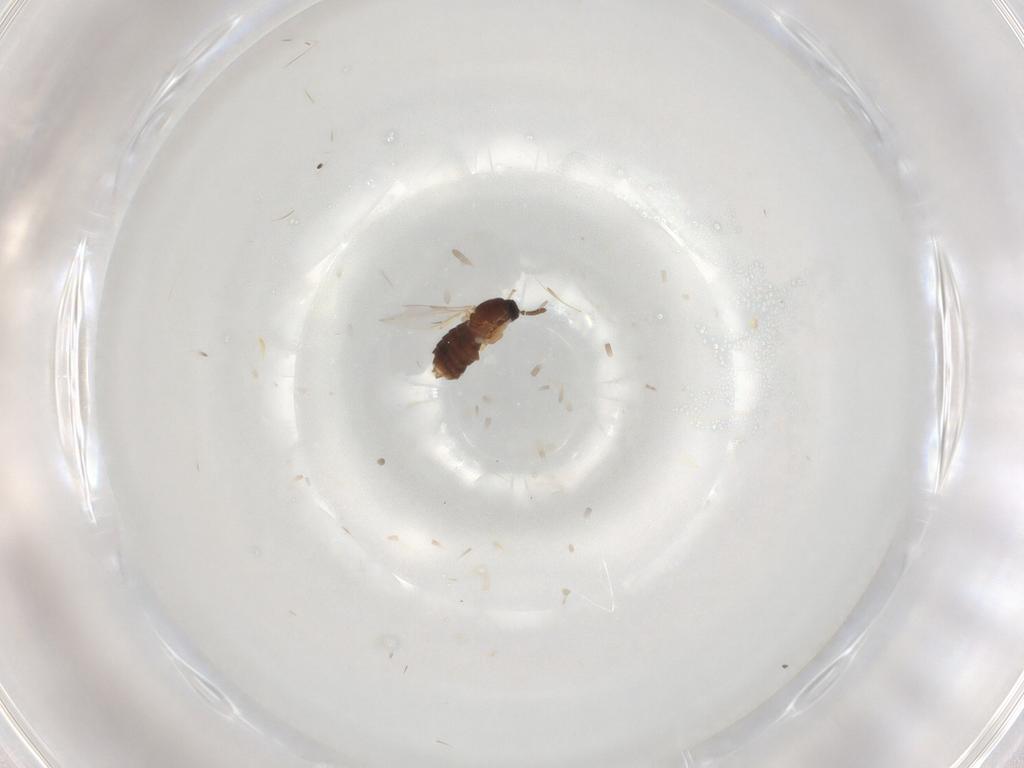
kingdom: Animalia
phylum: Arthropoda
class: Insecta
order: Diptera
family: Scatopsidae
